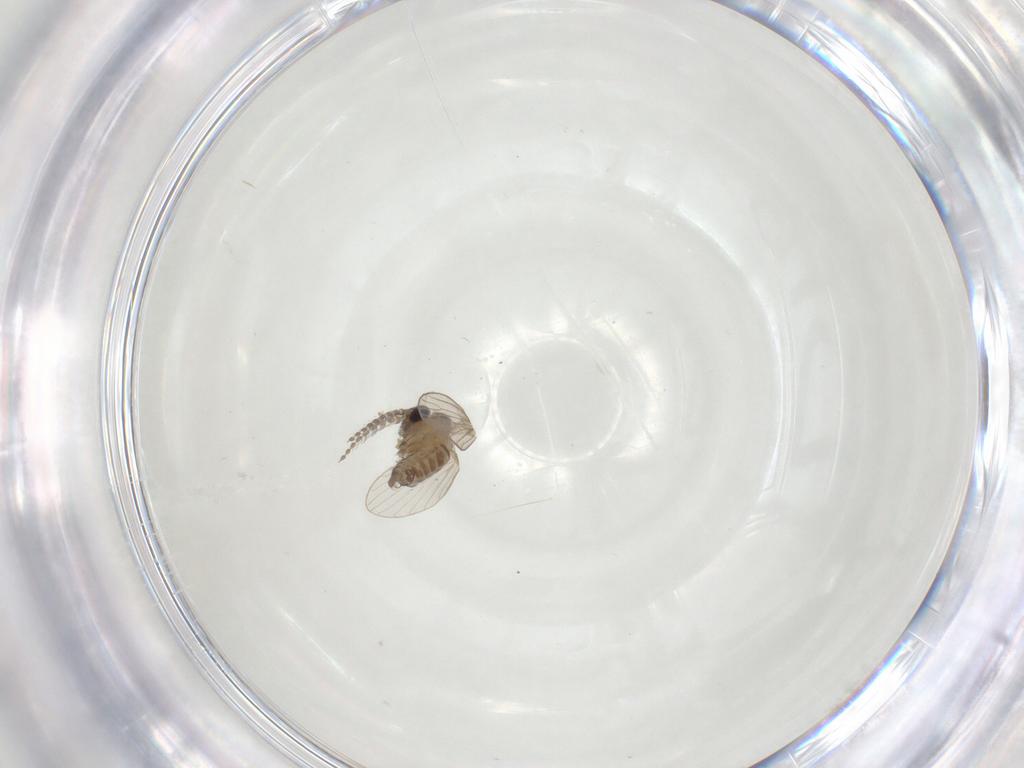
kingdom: Animalia
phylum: Arthropoda
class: Insecta
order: Diptera
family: Psychodidae
